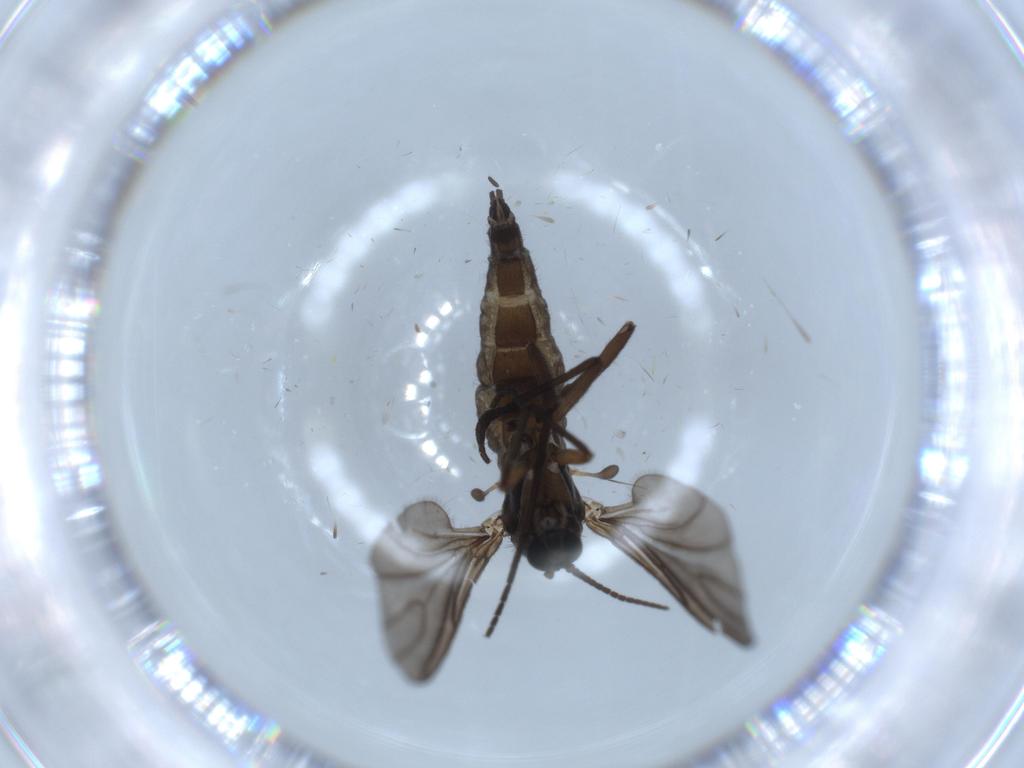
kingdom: Animalia
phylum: Arthropoda
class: Insecta
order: Diptera
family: Sciaridae
